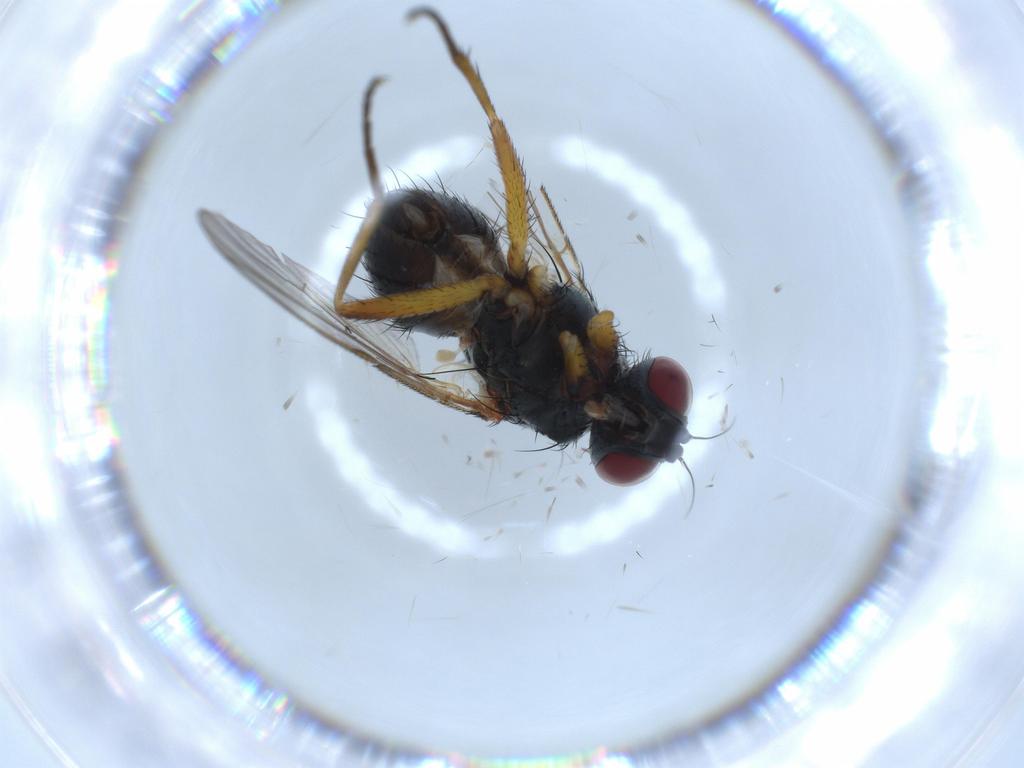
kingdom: Animalia
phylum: Arthropoda
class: Insecta
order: Diptera
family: Muscidae
